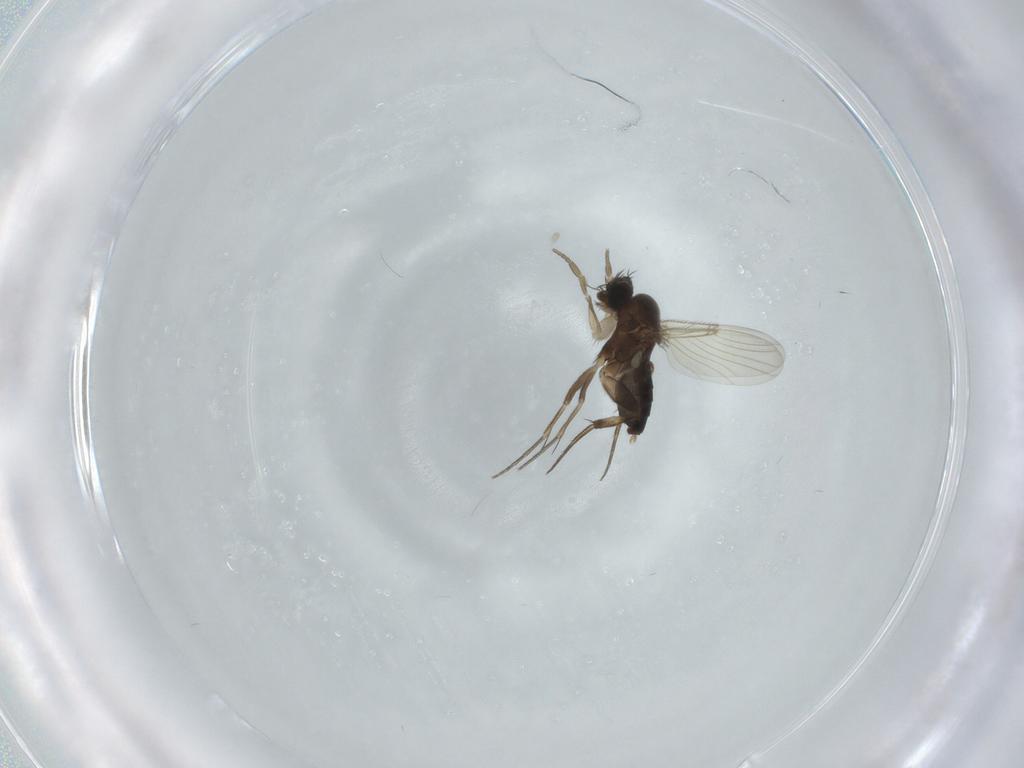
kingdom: Animalia
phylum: Arthropoda
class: Insecta
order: Diptera
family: Phoridae
